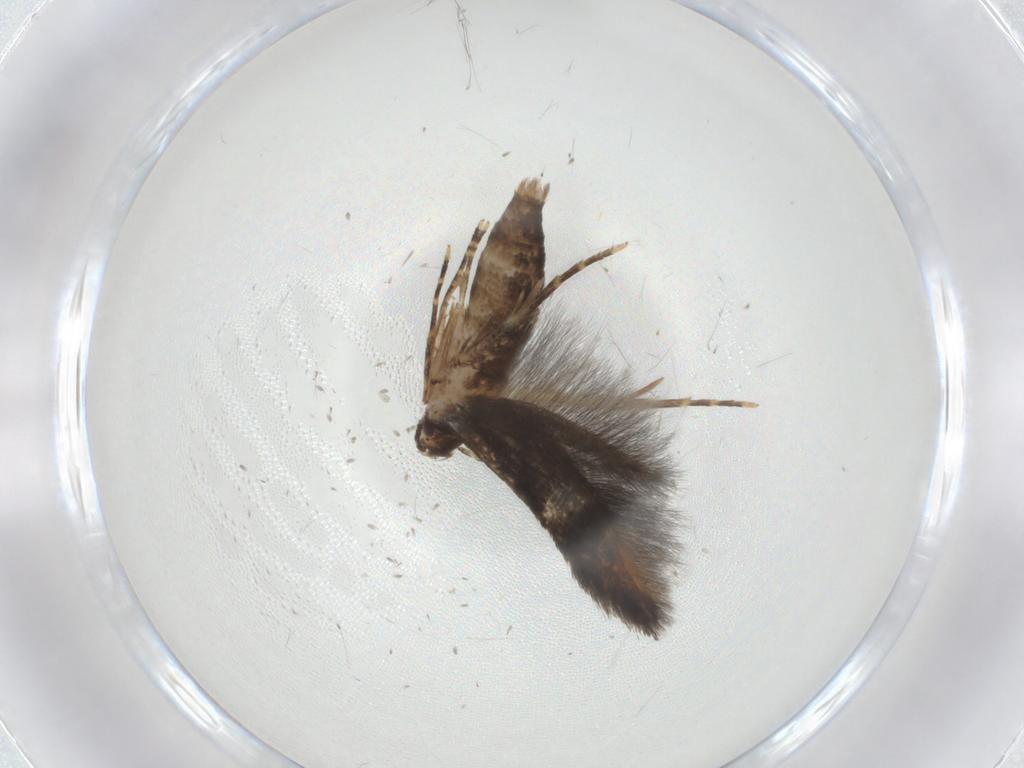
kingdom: Animalia
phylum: Arthropoda
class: Insecta
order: Lepidoptera
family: Cosmopterigidae
